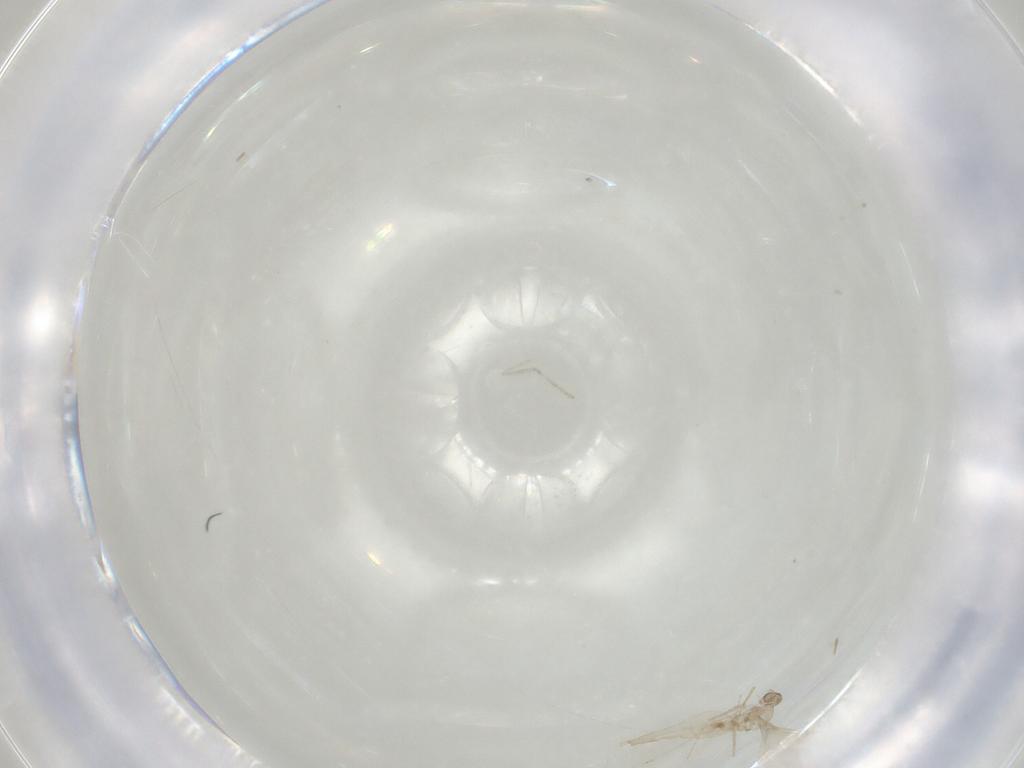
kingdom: Animalia
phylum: Arthropoda
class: Insecta
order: Diptera
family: Cecidomyiidae
